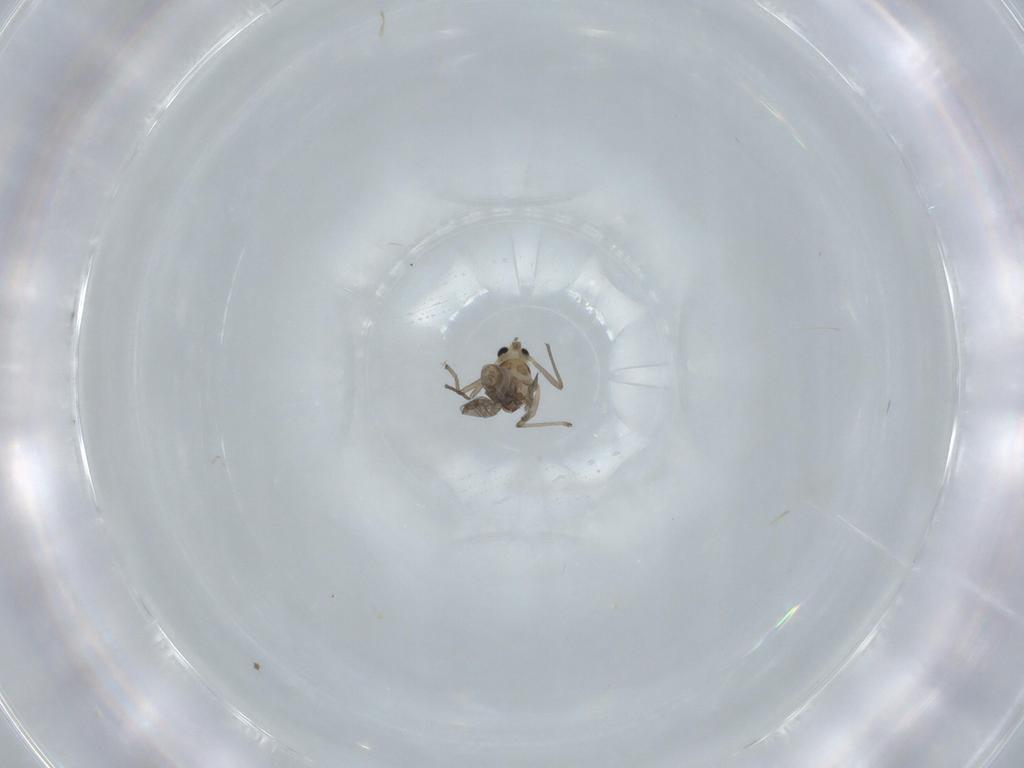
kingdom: Animalia
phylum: Arthropoda
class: Insecta
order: Diptera
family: Chironomidae
